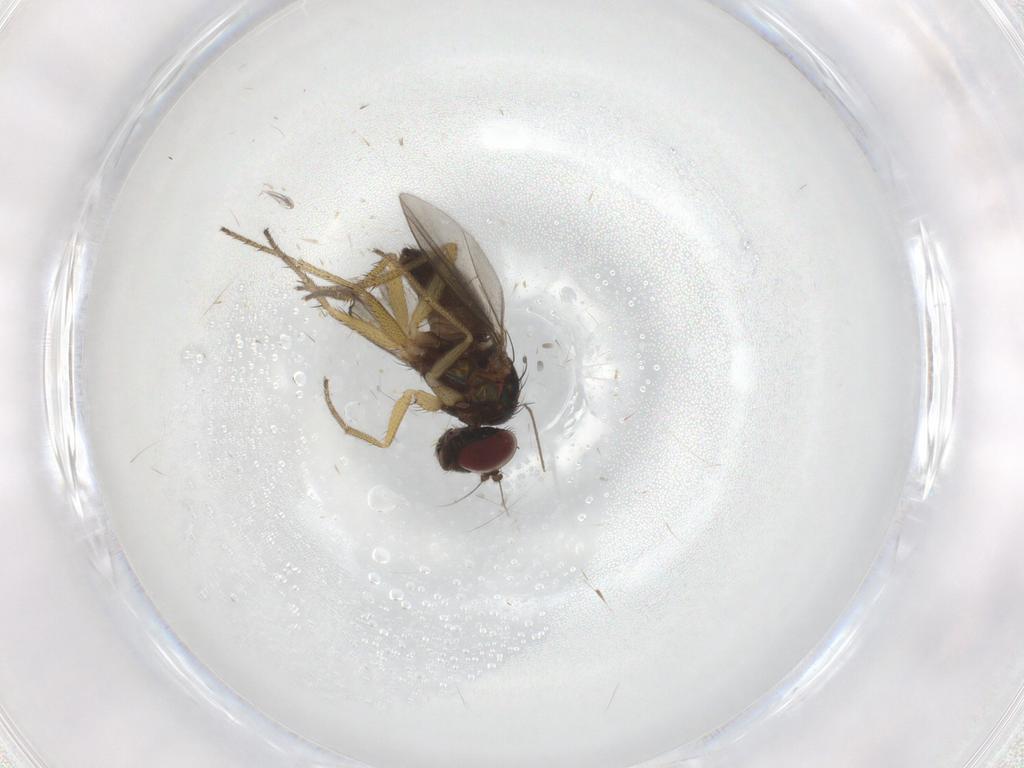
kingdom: Animalia
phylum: Arthropoda
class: Insecta
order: Diptera
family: Dolichopodidae
